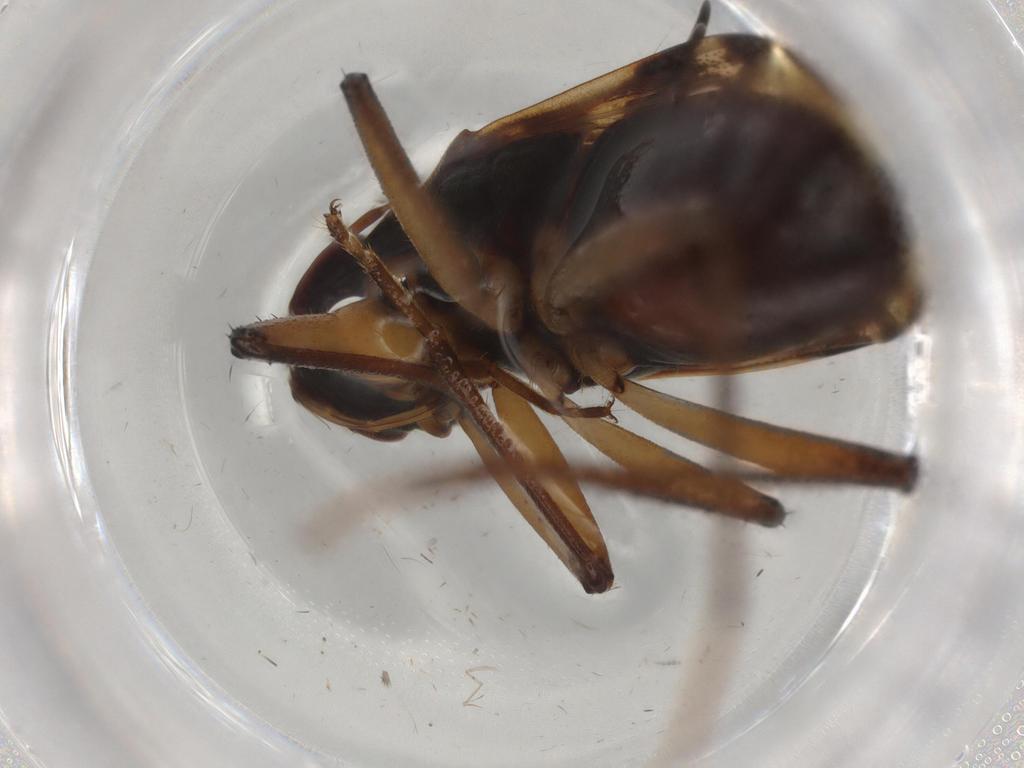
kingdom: Animalia
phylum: Arthropoda
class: Insecta
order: Hemiptera
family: Rhyparochromidae
